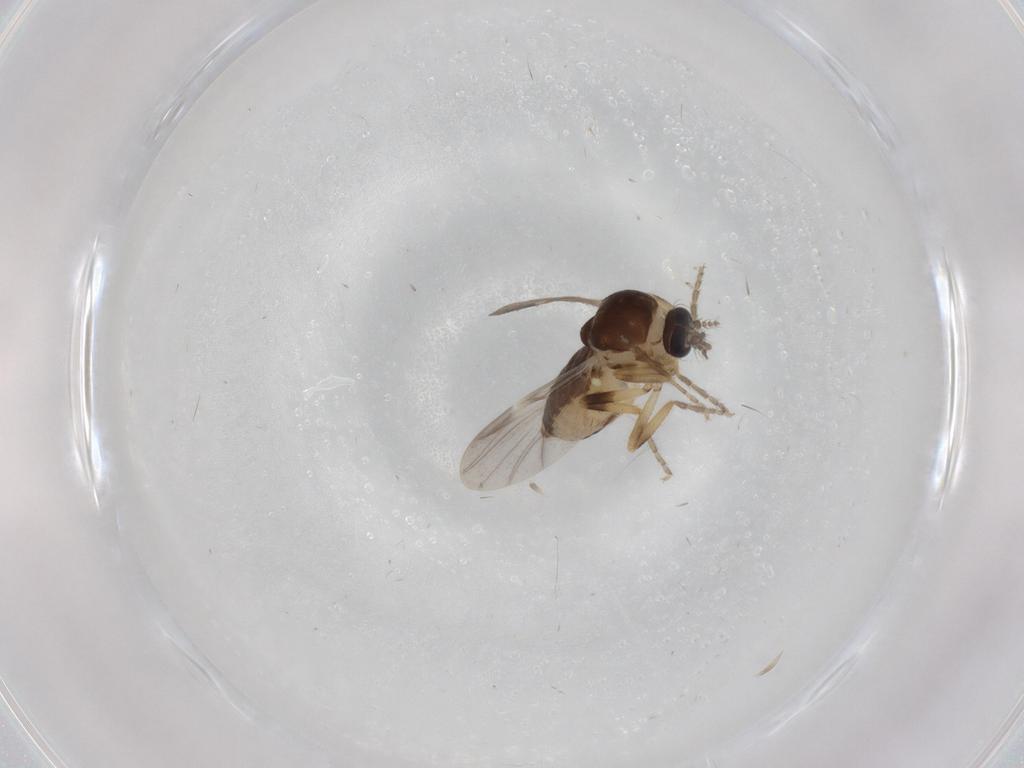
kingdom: Animalia
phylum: Arthropoda
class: Insecta
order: Diptera
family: Ceratopogonidae
